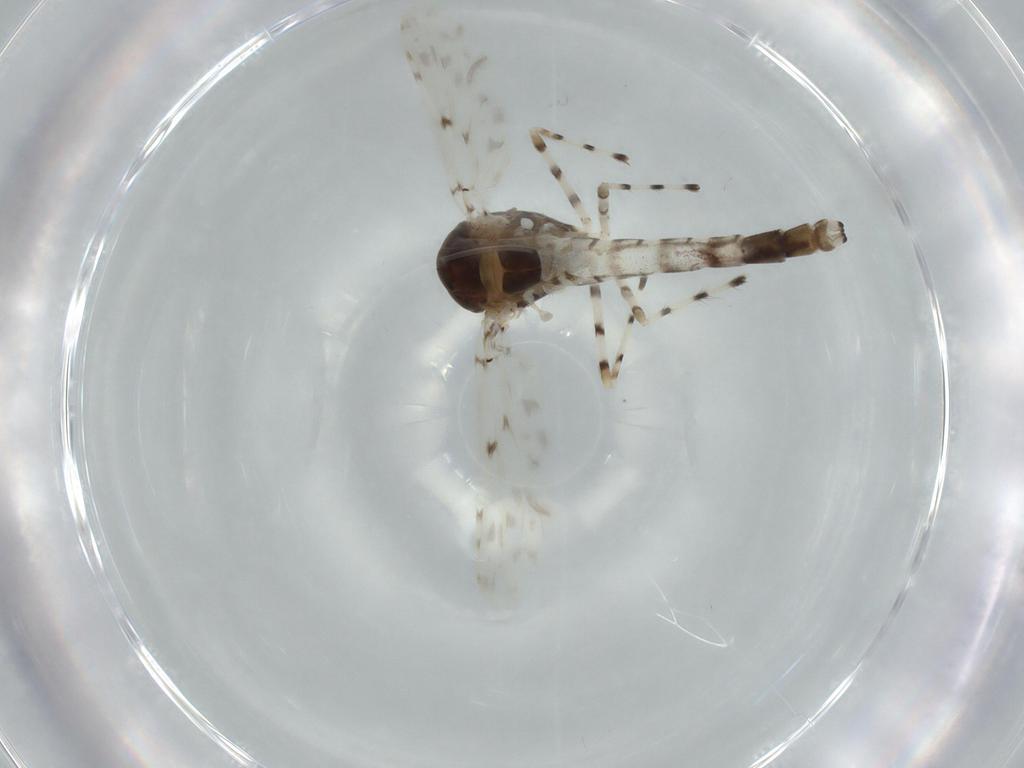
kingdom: Animalia
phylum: Arthropoda
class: Insecta
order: Diptera
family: Cecidomyiidae
